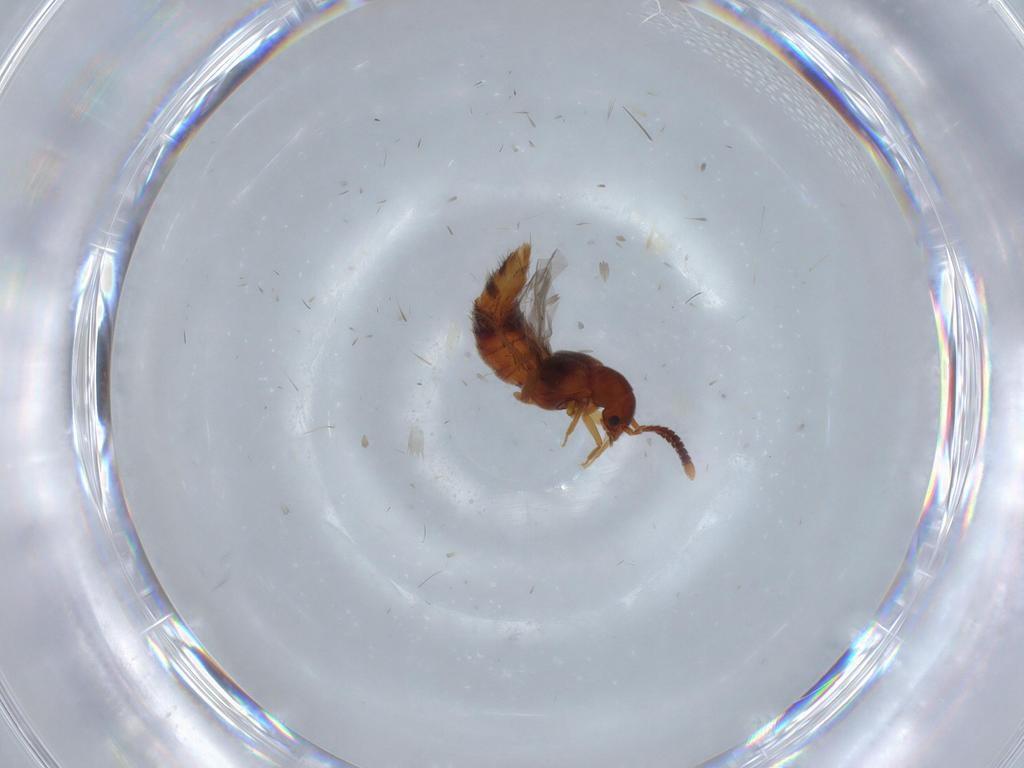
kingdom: Animalia
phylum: Arthropoda
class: Insecta
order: Coleoptera
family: Staphylinidae
